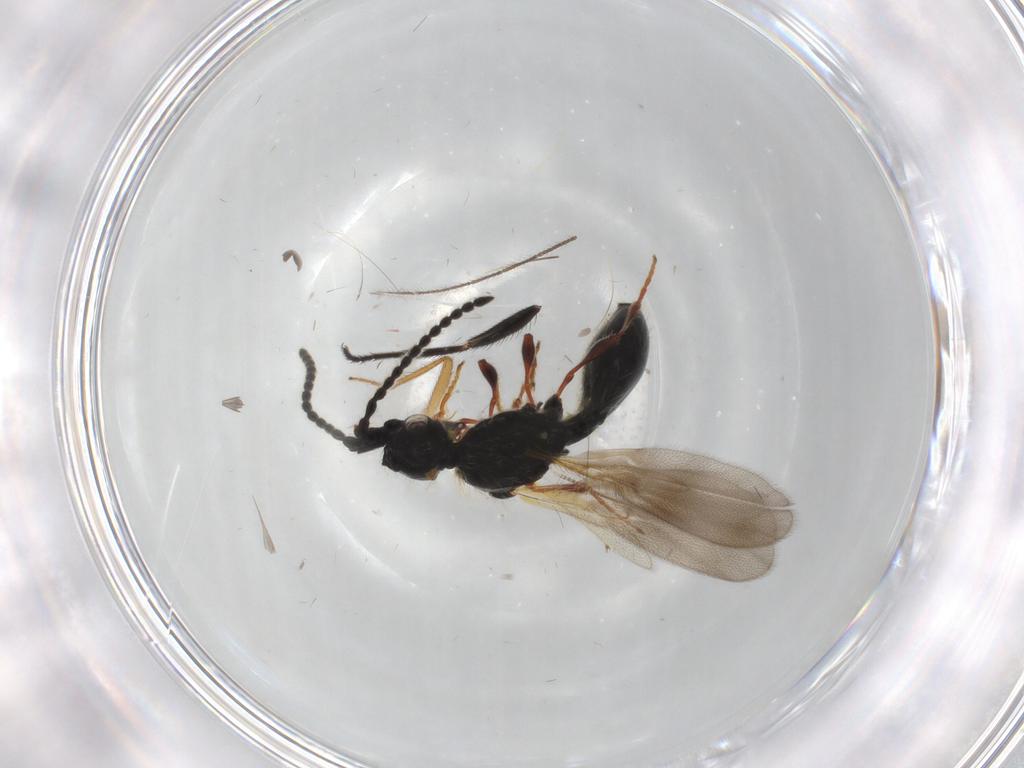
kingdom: Animalia
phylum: Arthropoda
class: Insecta
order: Hymenoptera
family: Diapriidae
